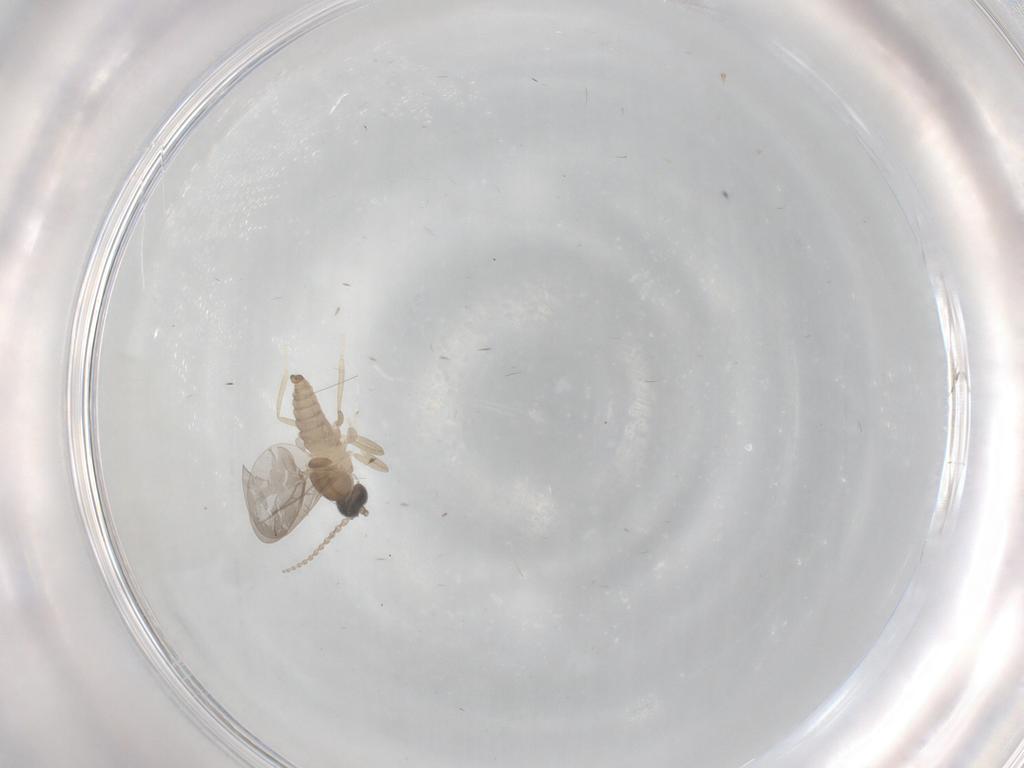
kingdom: Animalia
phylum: Arthropoda
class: Insecta
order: Diptera
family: Cecidomyiidae
